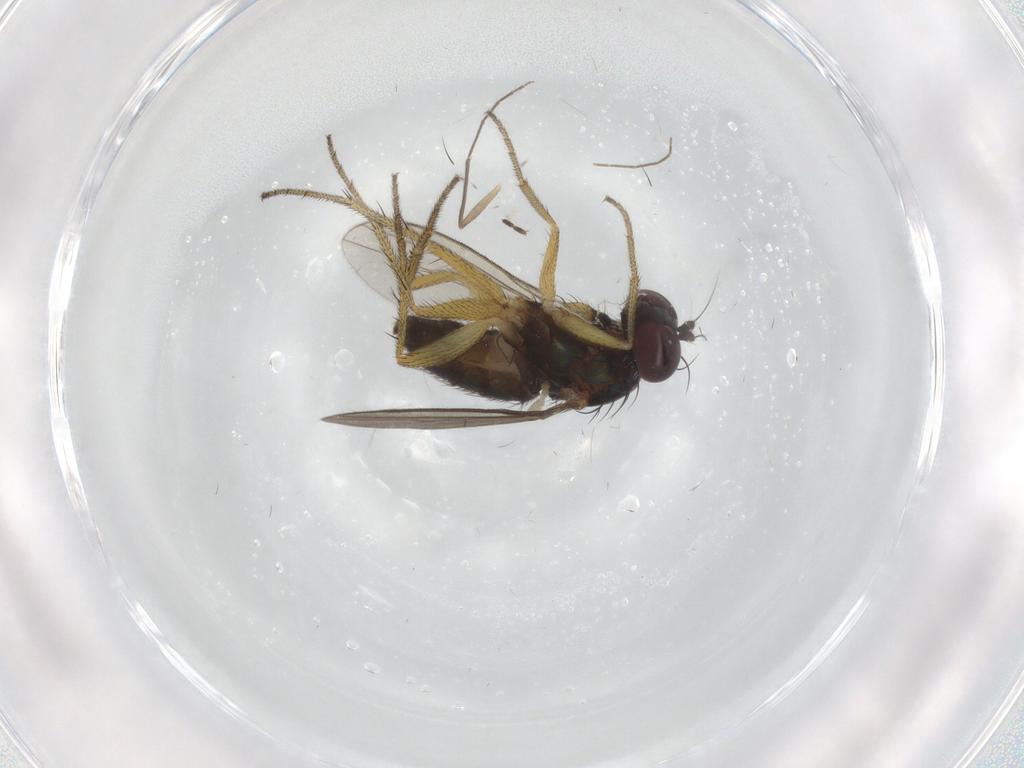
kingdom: Animalia
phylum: Arthropoda
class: Insecta
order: Diptera
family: Chironomidae
